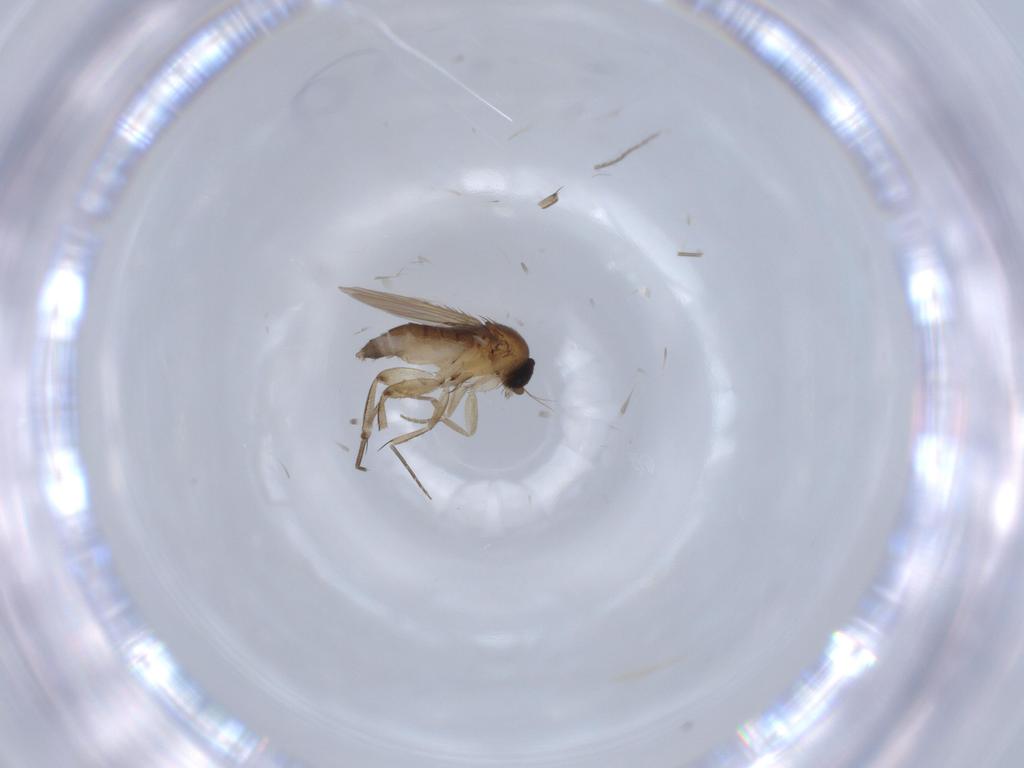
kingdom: Animalia
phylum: Arthropoda
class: Insecta
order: Diptera
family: Phoridae
